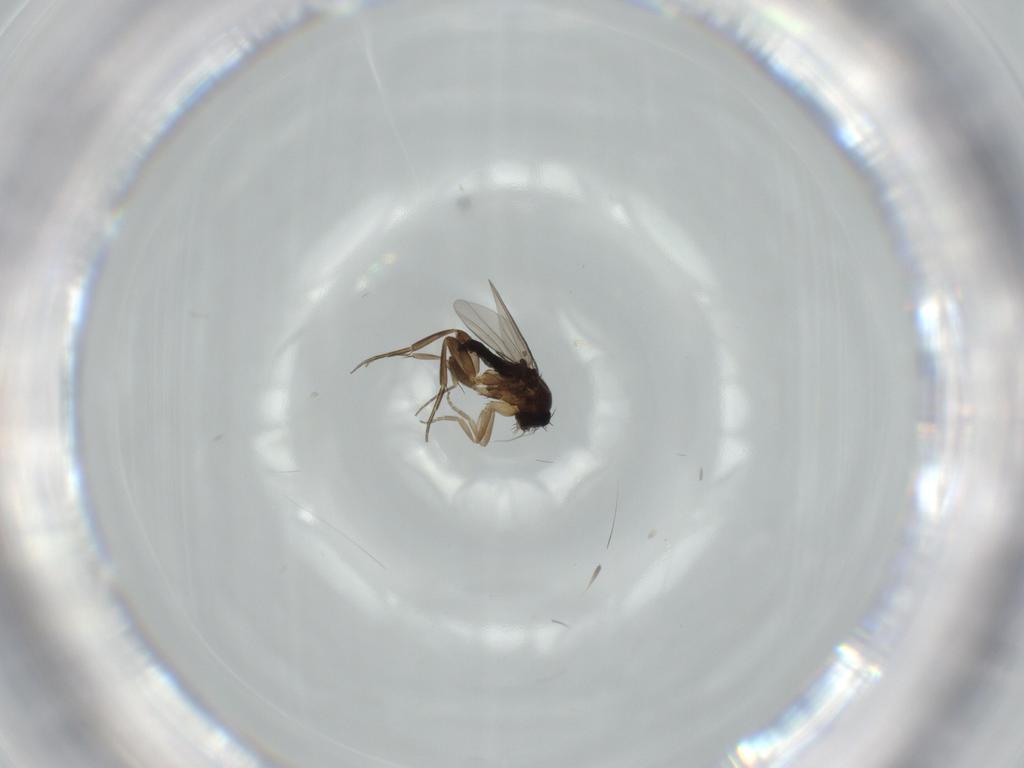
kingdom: Animalia
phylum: Arthropoda
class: Insecta
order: Diptera
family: Phoridae
